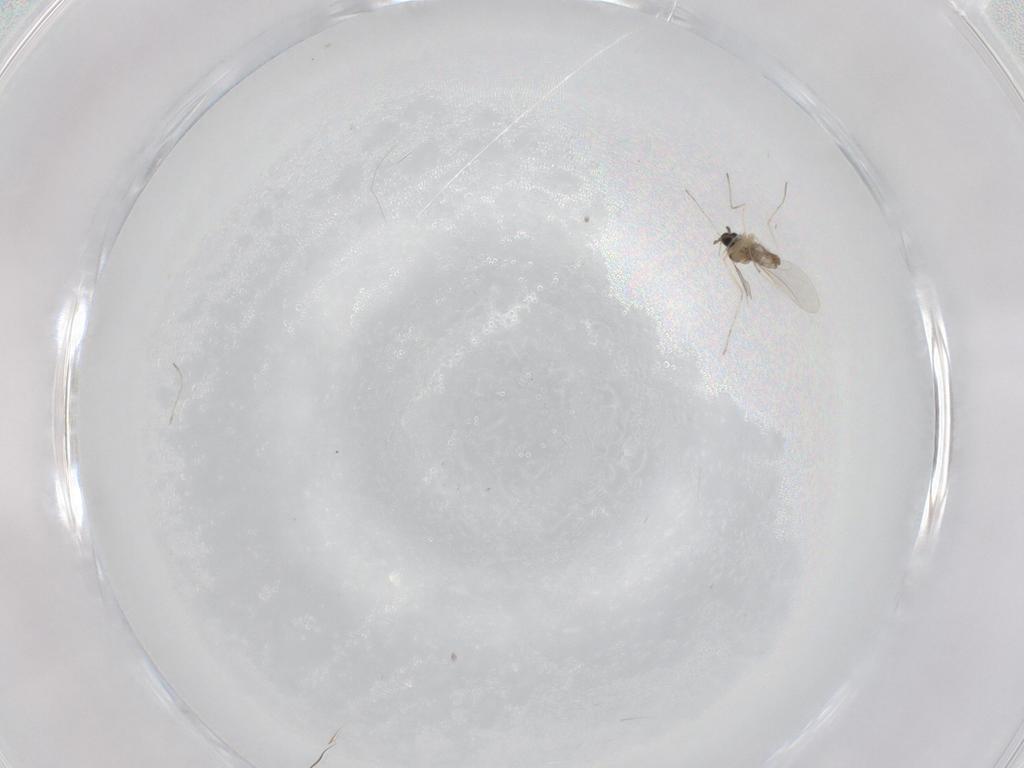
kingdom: Animalia
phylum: Arthropoda
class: Insecta
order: Diptera
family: Cecidomyiidae
